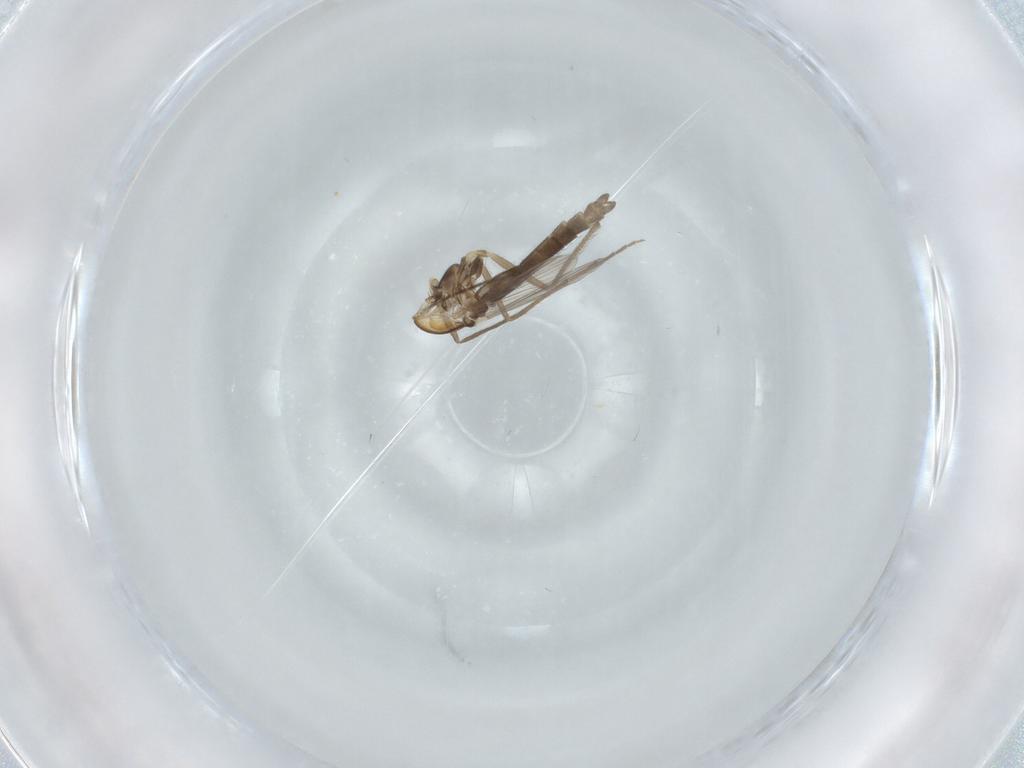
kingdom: Animalia
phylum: Arthropoda
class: Insecta
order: Diptera
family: Chironomidae
